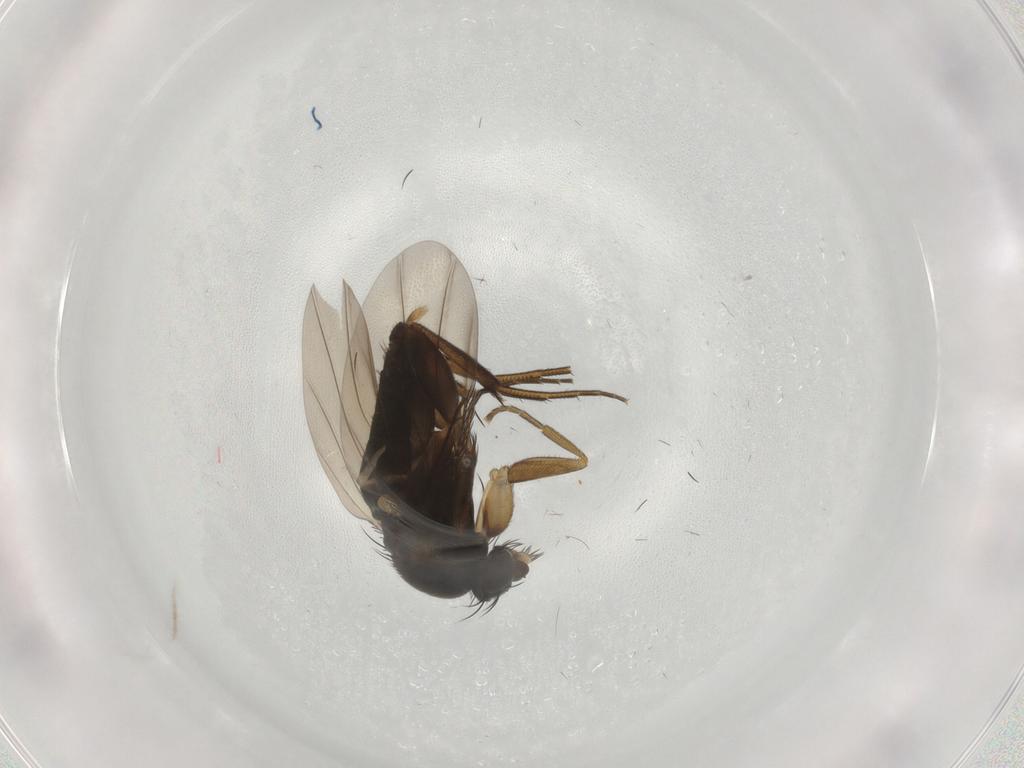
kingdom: Animalia
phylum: Arthropoda
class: Insecta
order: Diptera
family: Phoridae
